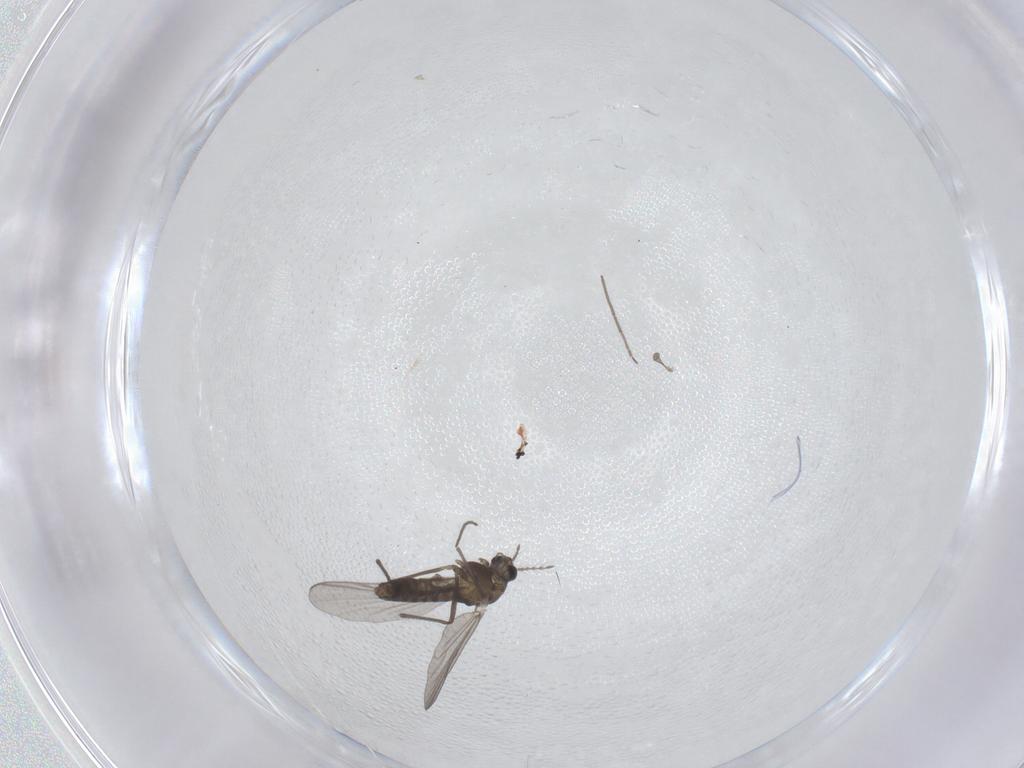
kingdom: Animalia
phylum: Arthropoda
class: Insecta
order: Diptera
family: Chironomidae
